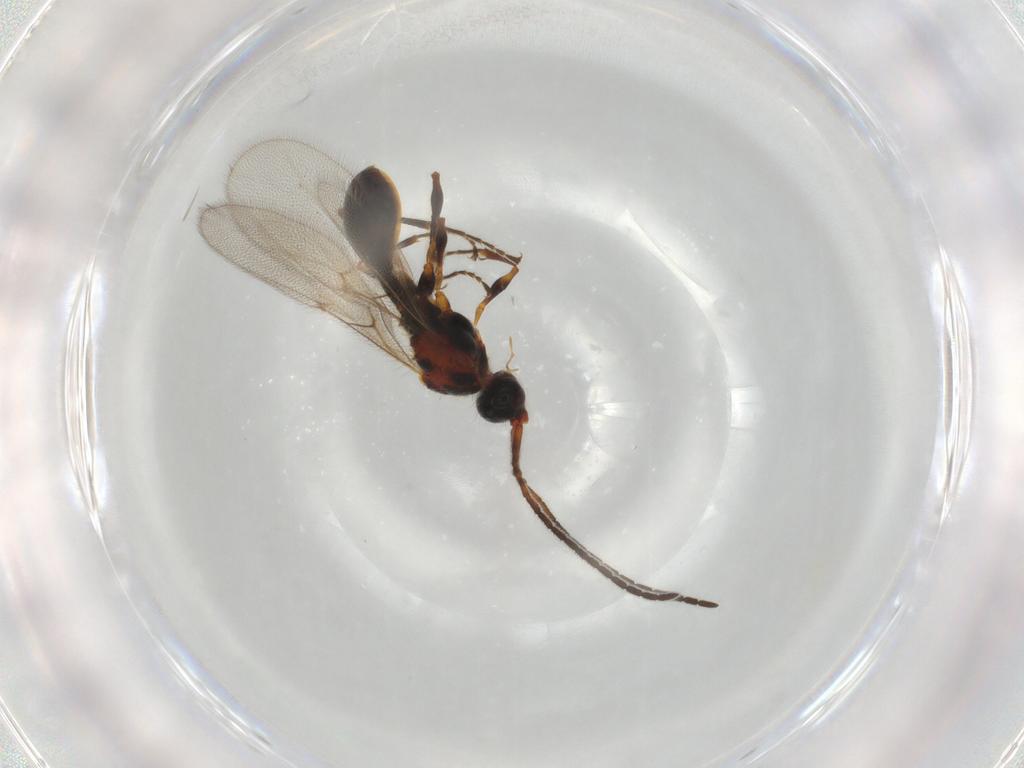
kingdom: Animalia
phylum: Arthropoda
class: Insecta
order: Hymenoptera
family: Diapriidae
